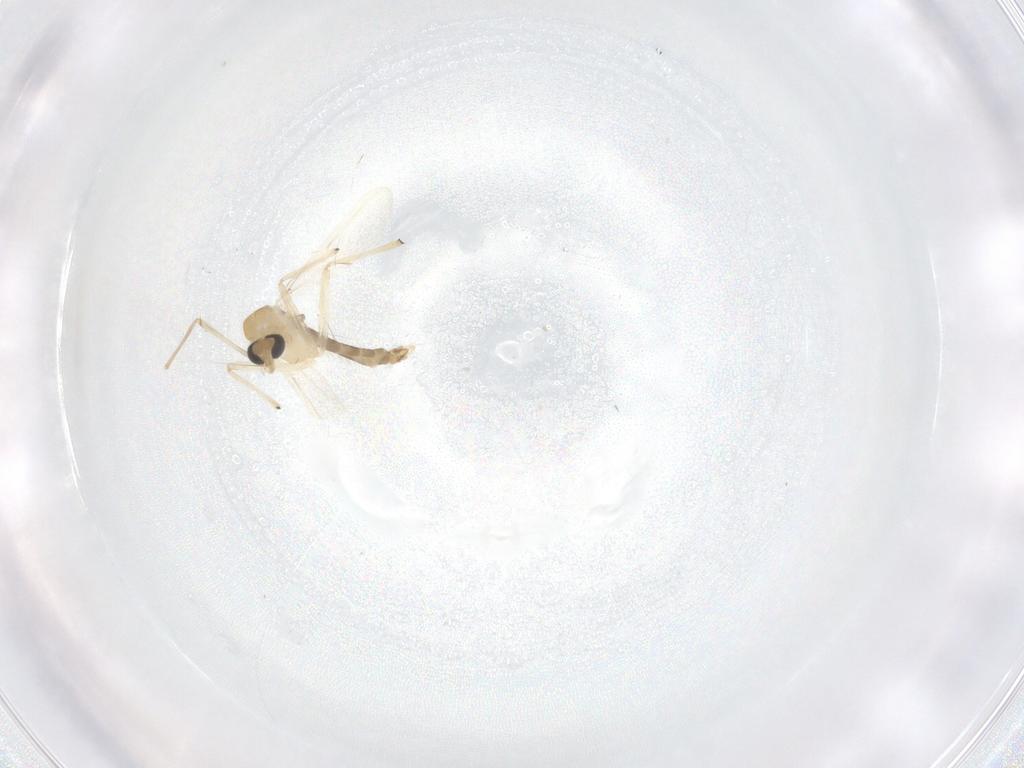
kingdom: Animalia
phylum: Arthropoda
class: Insecta
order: Diptera
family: Chironomidae
